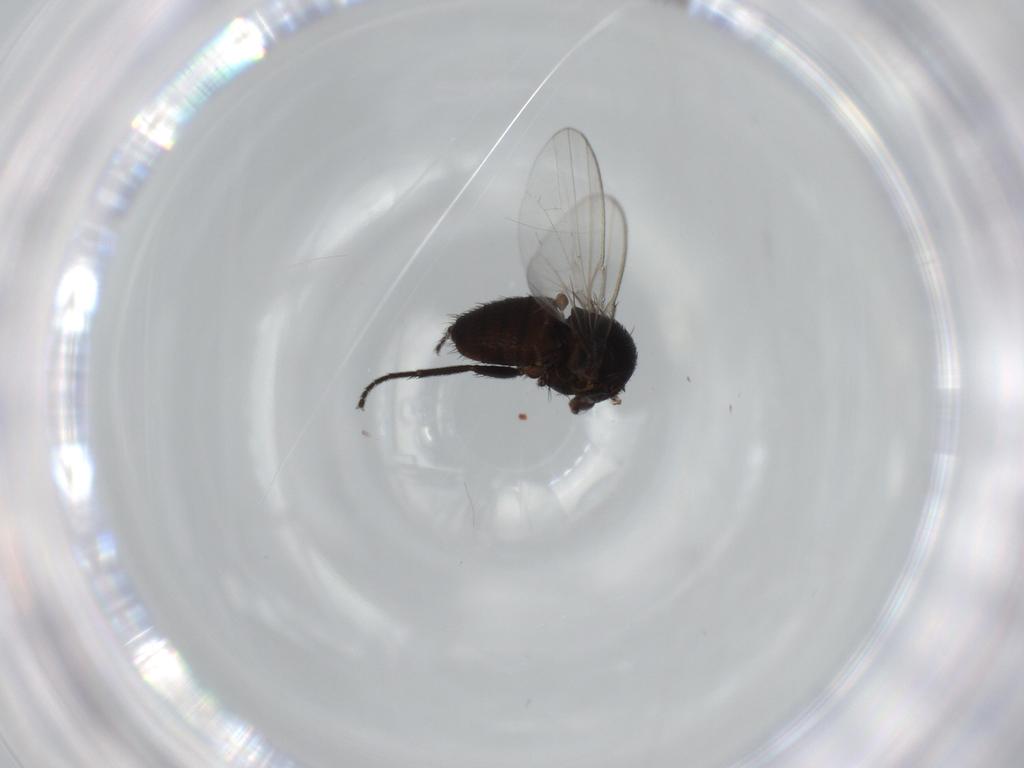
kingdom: Animalia
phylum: Arthropoda
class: Insecta
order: Diptera
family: Milichiidae
